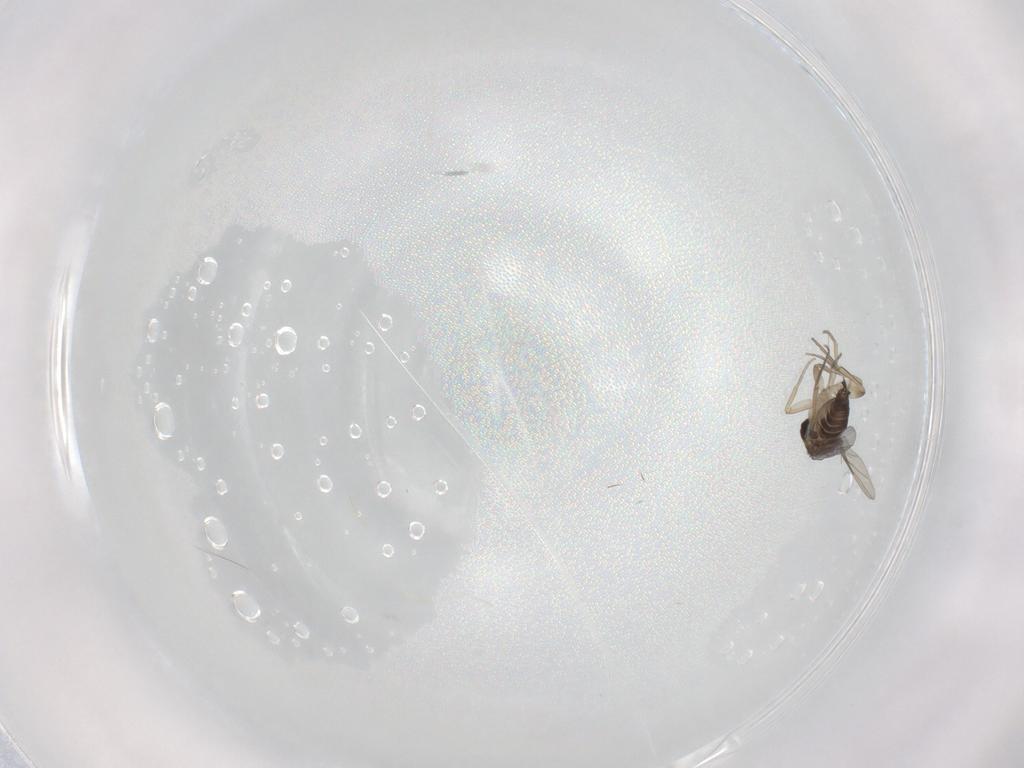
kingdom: Animalia
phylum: Arthropoda
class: Insecta
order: Diptera
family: Phoridae
